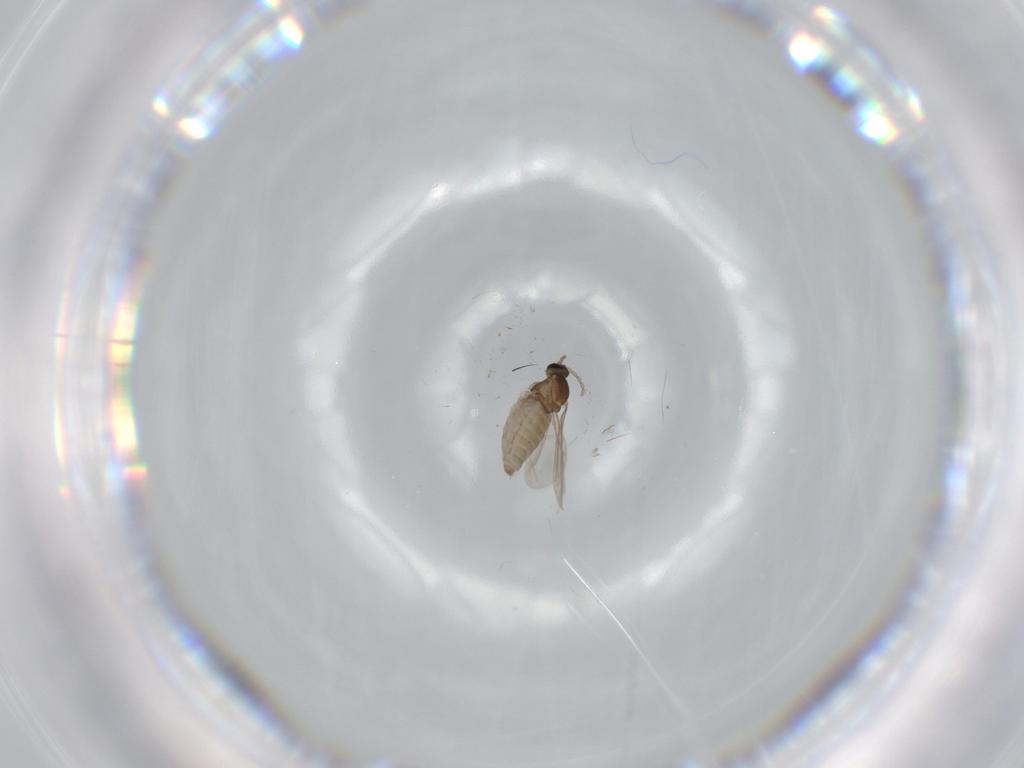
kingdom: Animalia
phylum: Arthropoda
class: Insecta
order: Diptera
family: Cecidomyiidae
